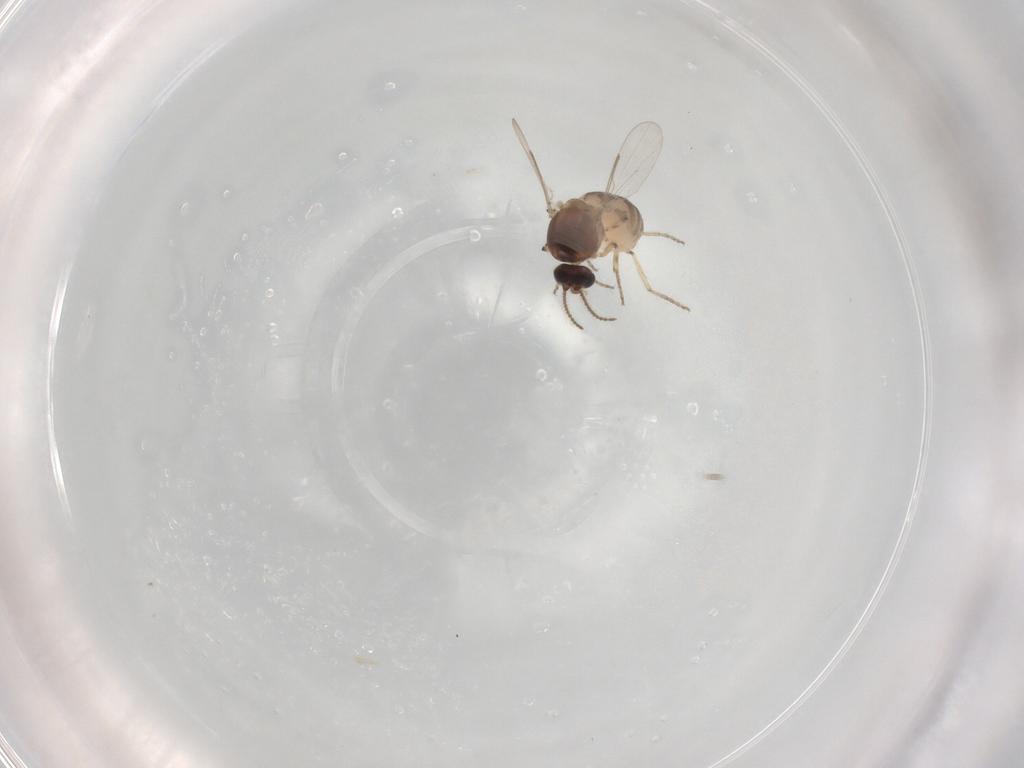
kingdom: Animalia
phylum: Arthropoda
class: Insecta
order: Diptera
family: Ceratopogonidae
